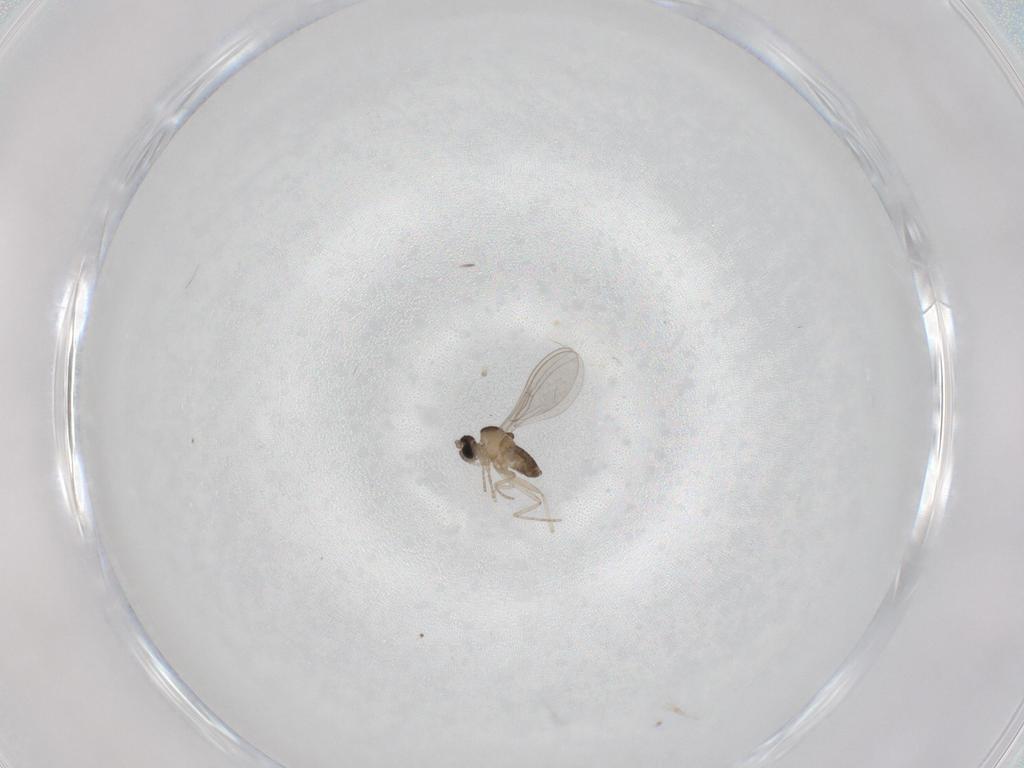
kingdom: Animalia
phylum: Arthropoda
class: Insecta
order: Diptera
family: Cecidomyiidae
